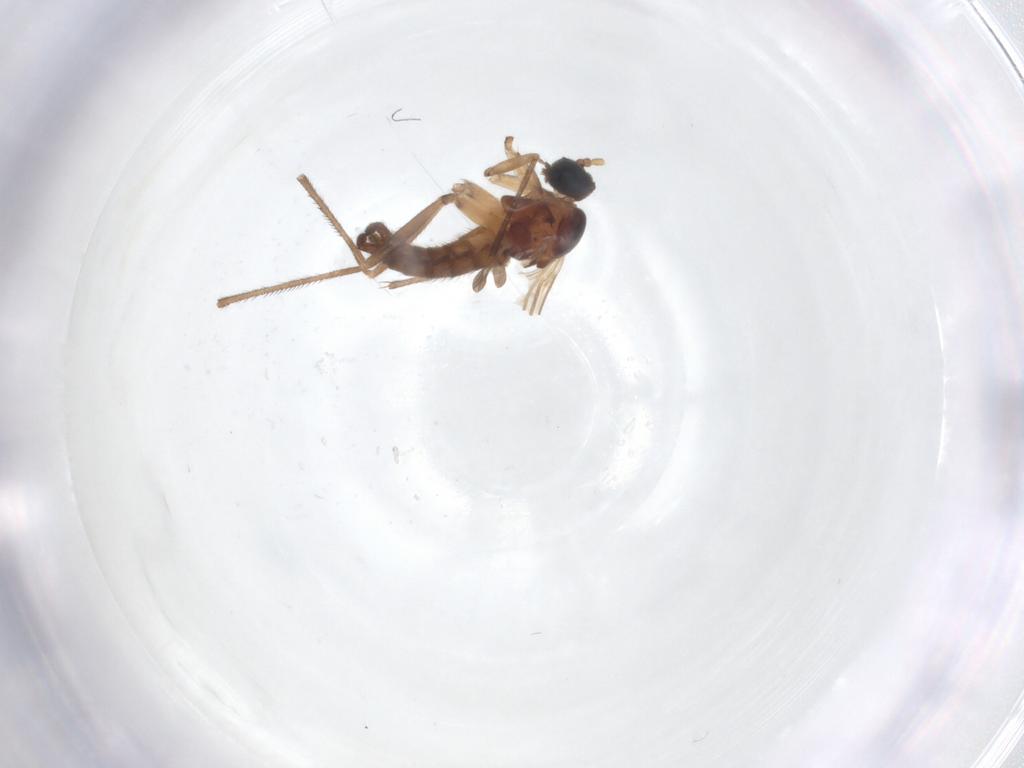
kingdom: Animalia
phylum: Arthropoda
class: Insecta
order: Diptera
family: Sciaridae
